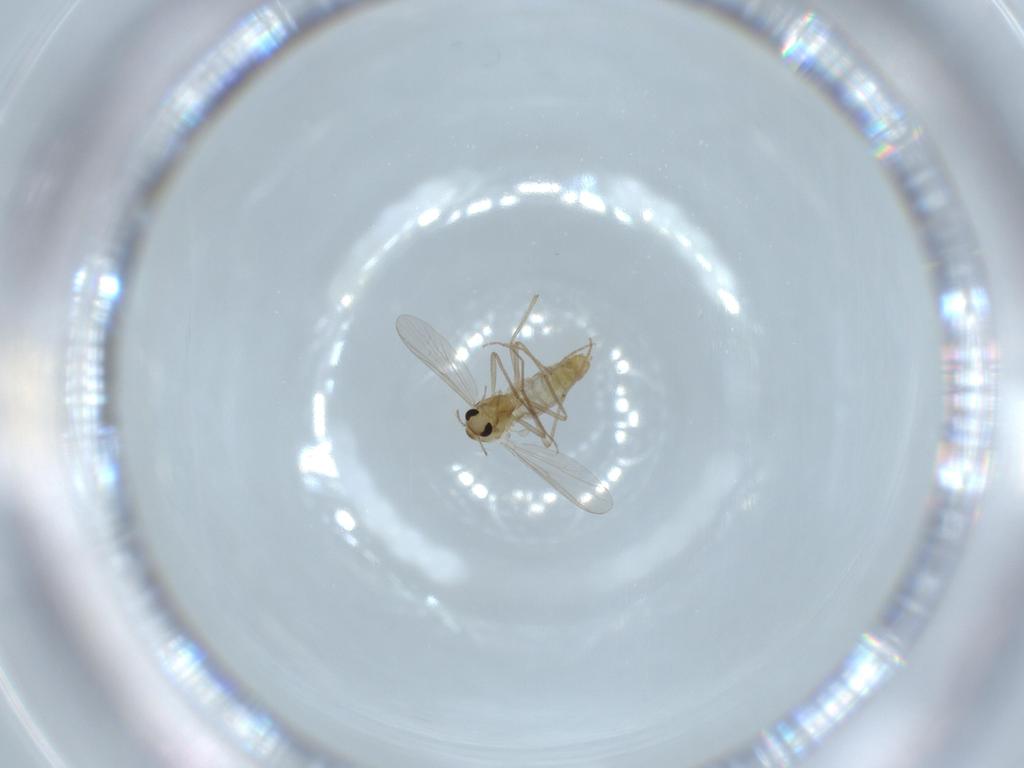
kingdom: Animalia
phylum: Arthropoda
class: Insecta
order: Diptera
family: Chironomidae
